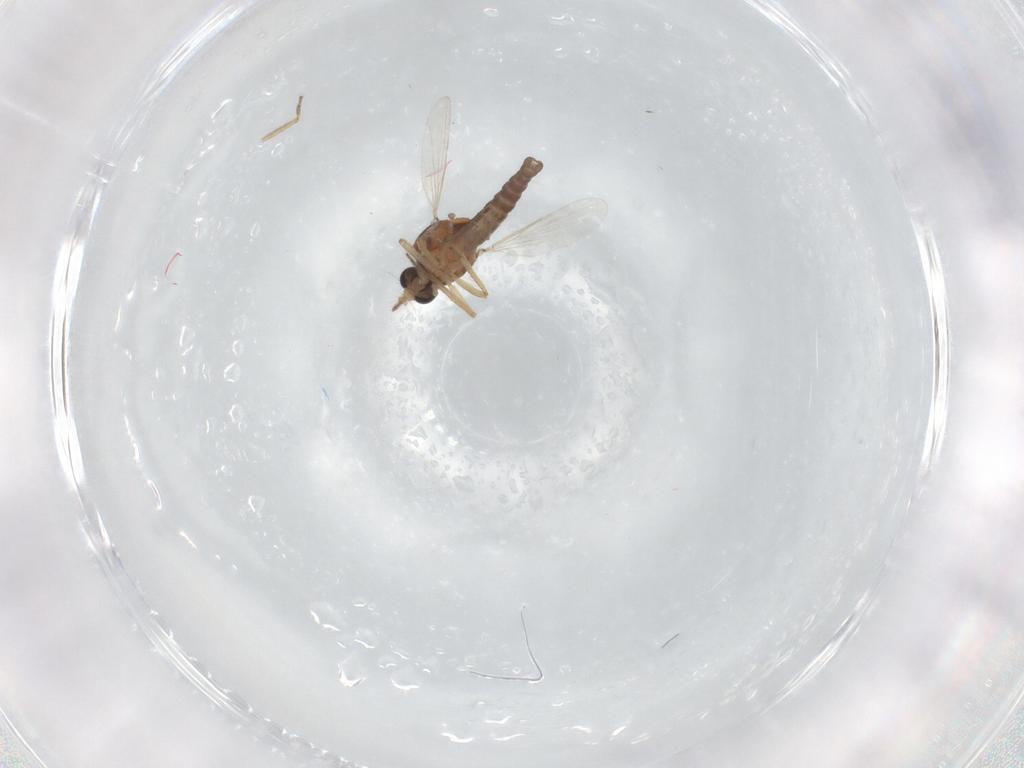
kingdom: Animalia
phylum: Arthropoda
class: Insecta
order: Diptera
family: Ceratopogonidae
